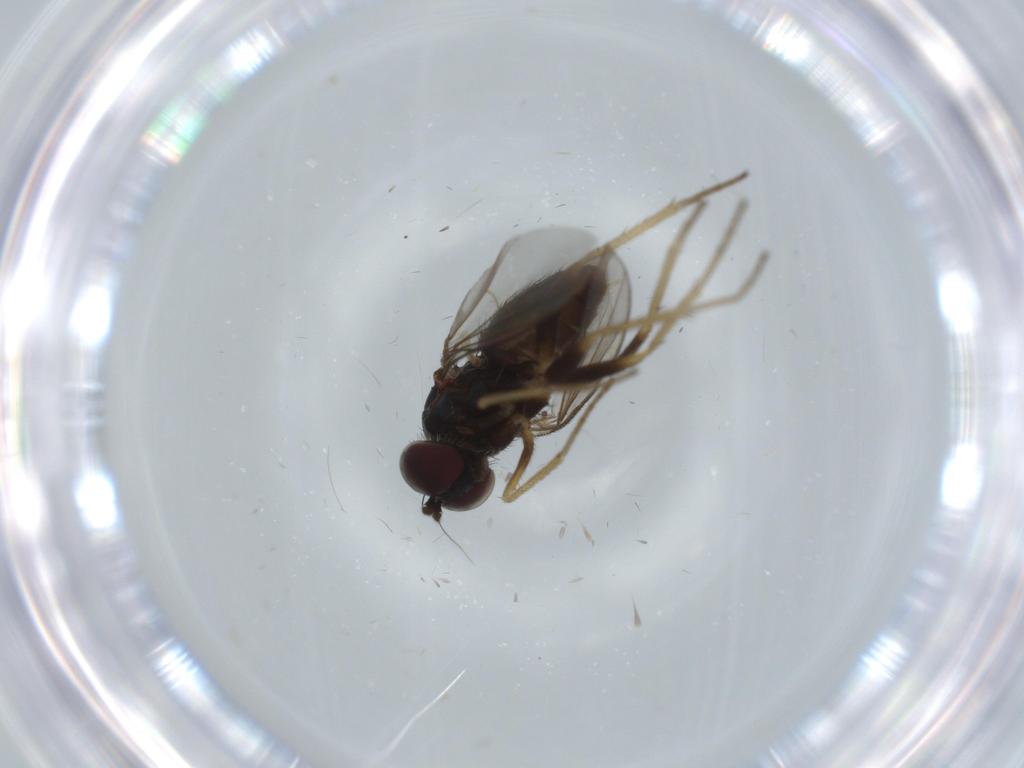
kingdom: Animalia
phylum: Arthropoda
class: Insecta
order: Diptera
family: Dolichopodidae
